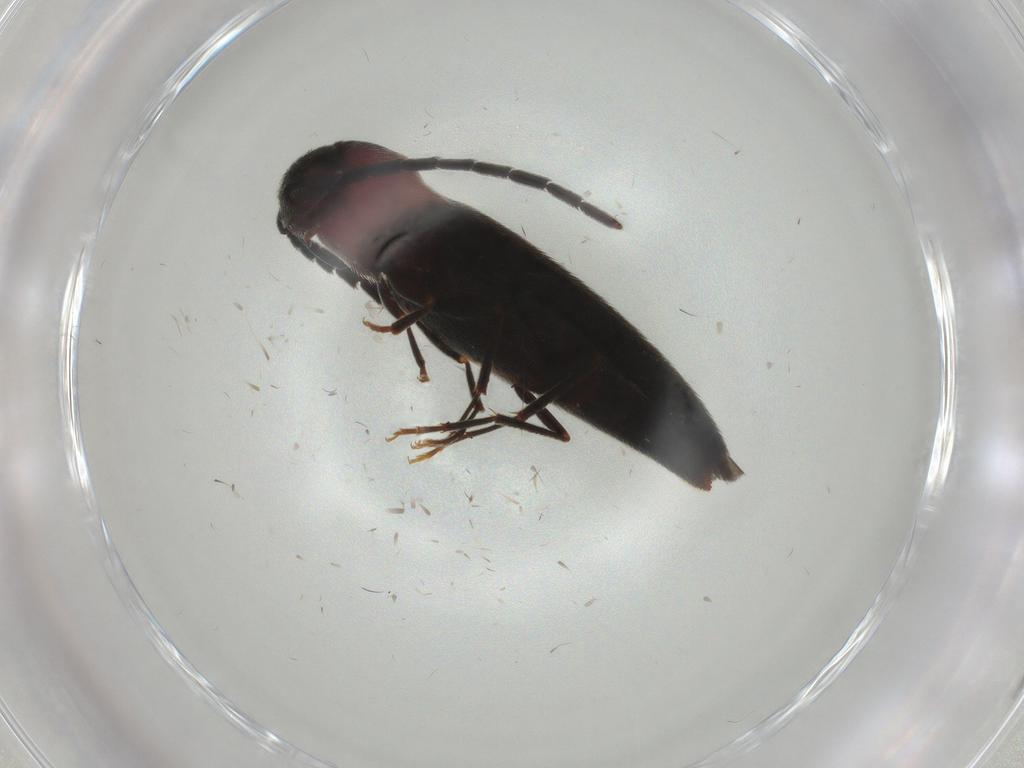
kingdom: Animalia
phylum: Arthropoda
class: Insecta
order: Coleoptera
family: Eucnemidae
